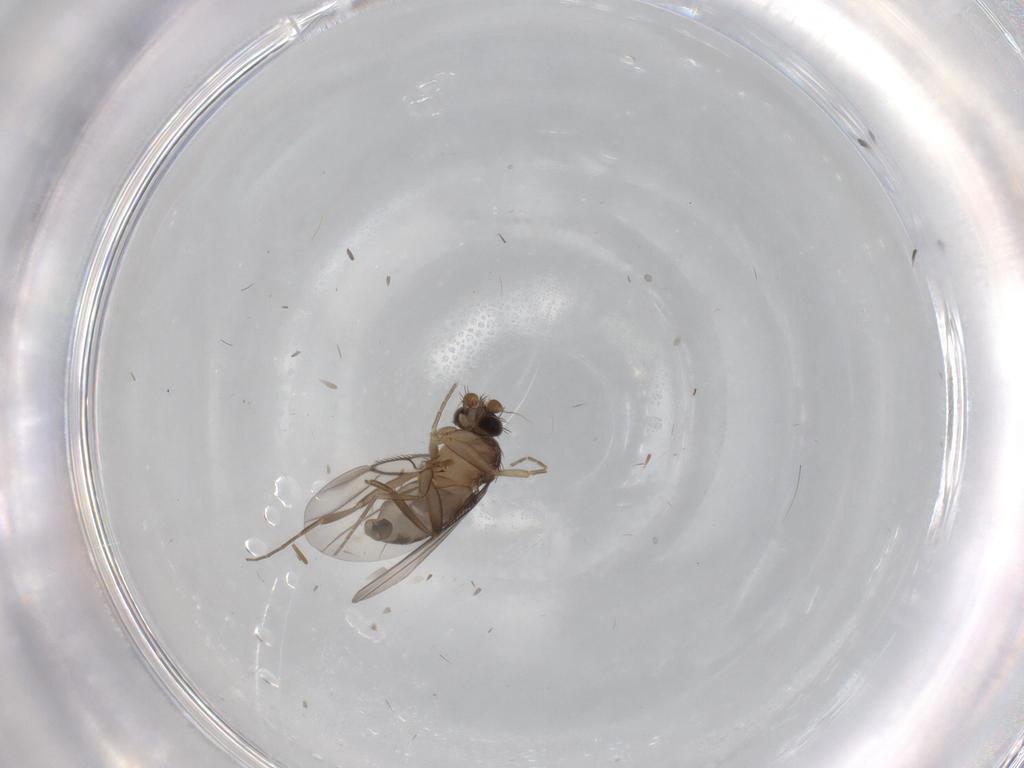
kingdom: Animalia
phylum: Arthropoda
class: Insecta
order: Diptera
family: Phoridae
